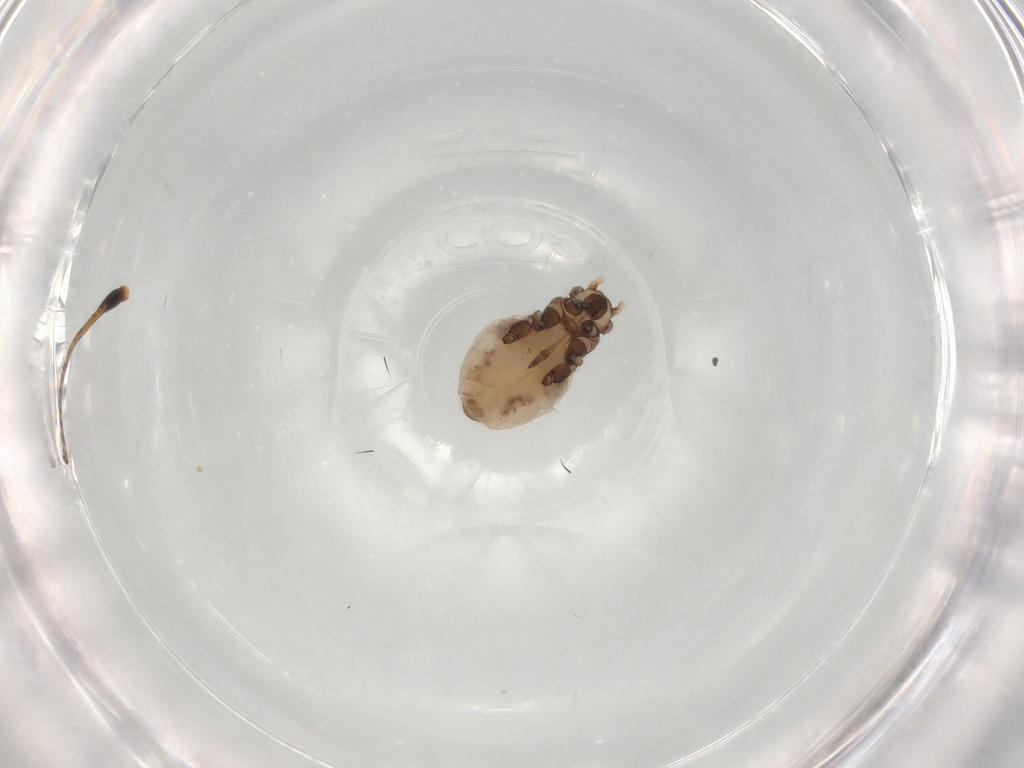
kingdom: Animalia
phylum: Arthropoda
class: Insecta
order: Hemiptera
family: Aphididae
